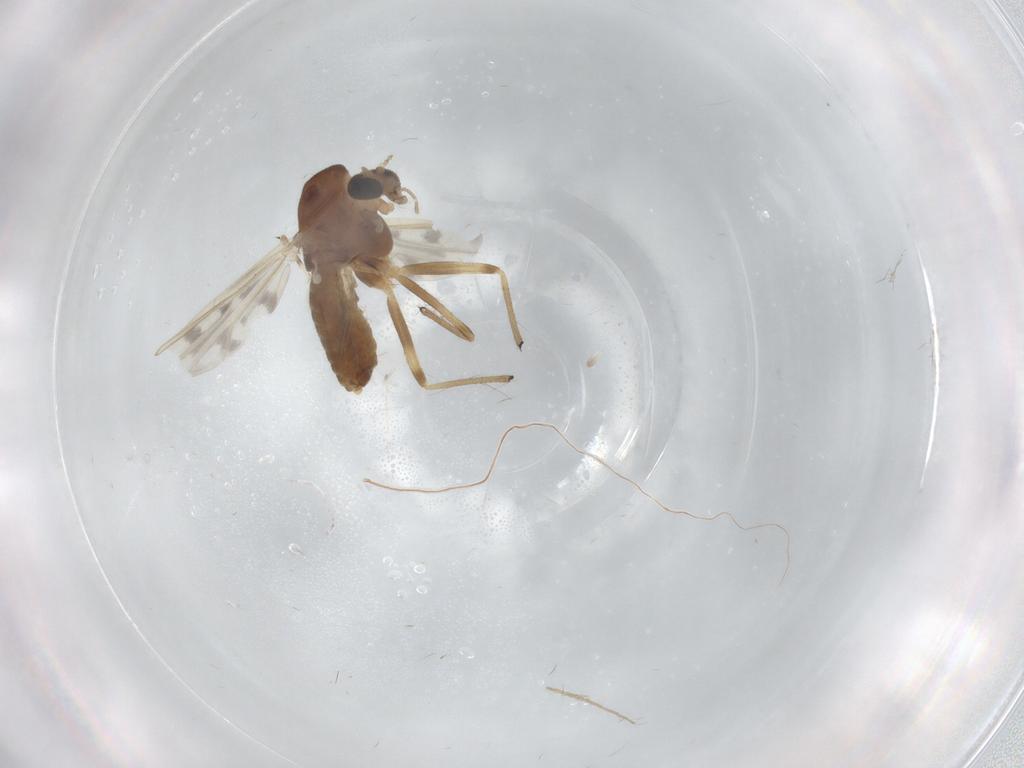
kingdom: Animalia
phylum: Arthropoda
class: Insecta
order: Diptera
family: Chironomidae
